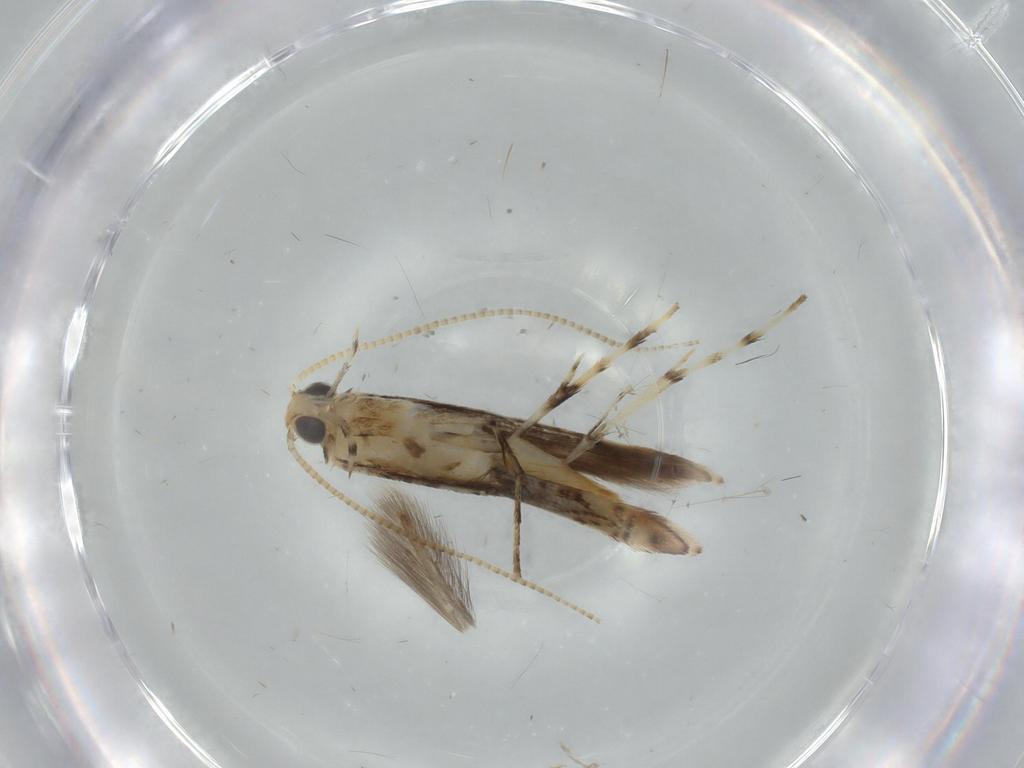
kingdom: Animalia
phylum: Arthropoda
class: Insecta
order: Lepidoptera
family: Gracillariidae
